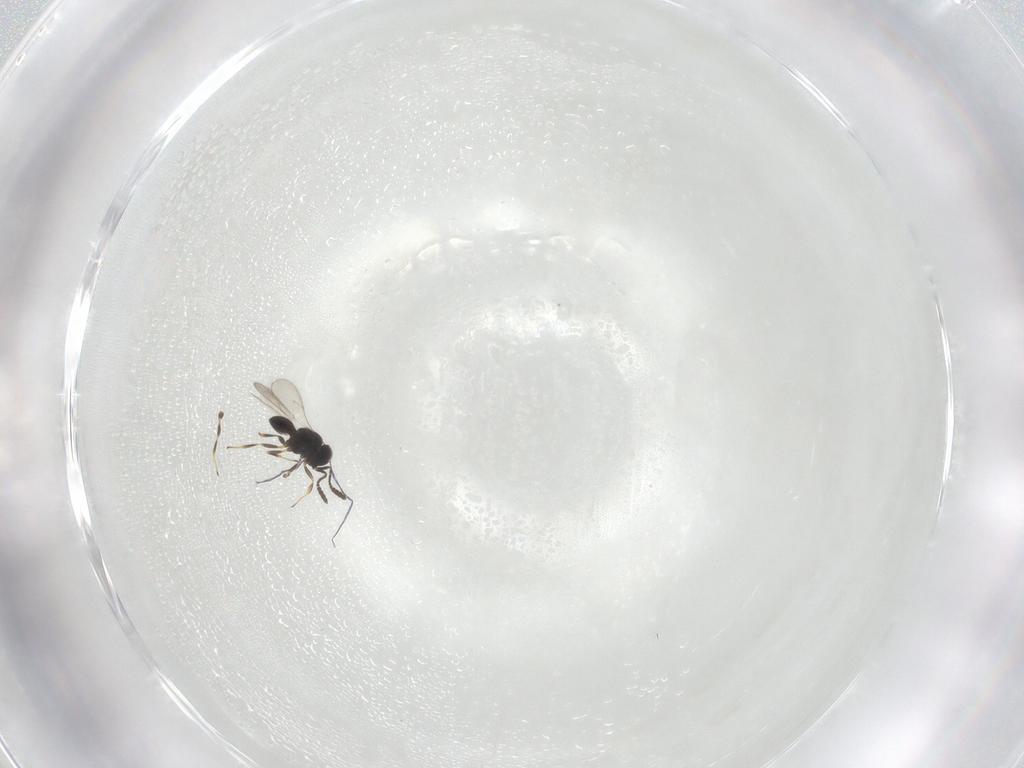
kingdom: Animalia
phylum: Arthropoda
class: Insecta
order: Hymenoptera
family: Scelionidae
